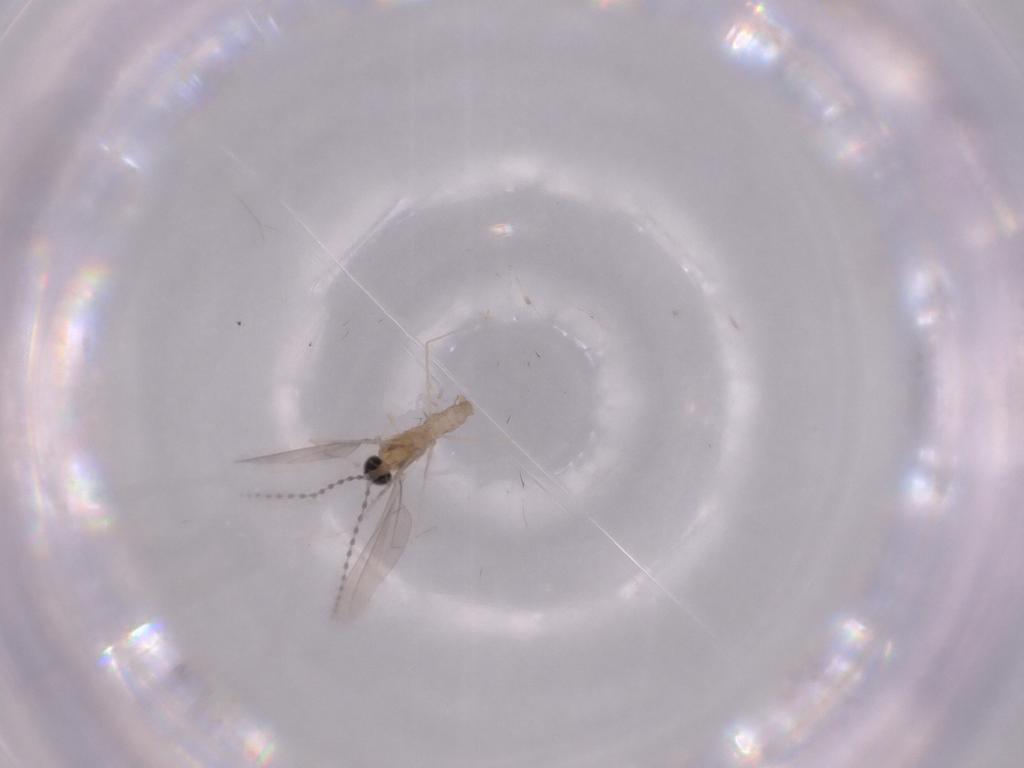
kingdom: Animalia
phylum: Arthropoda
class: Insecta
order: Diptera
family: Cecidomyiidae
